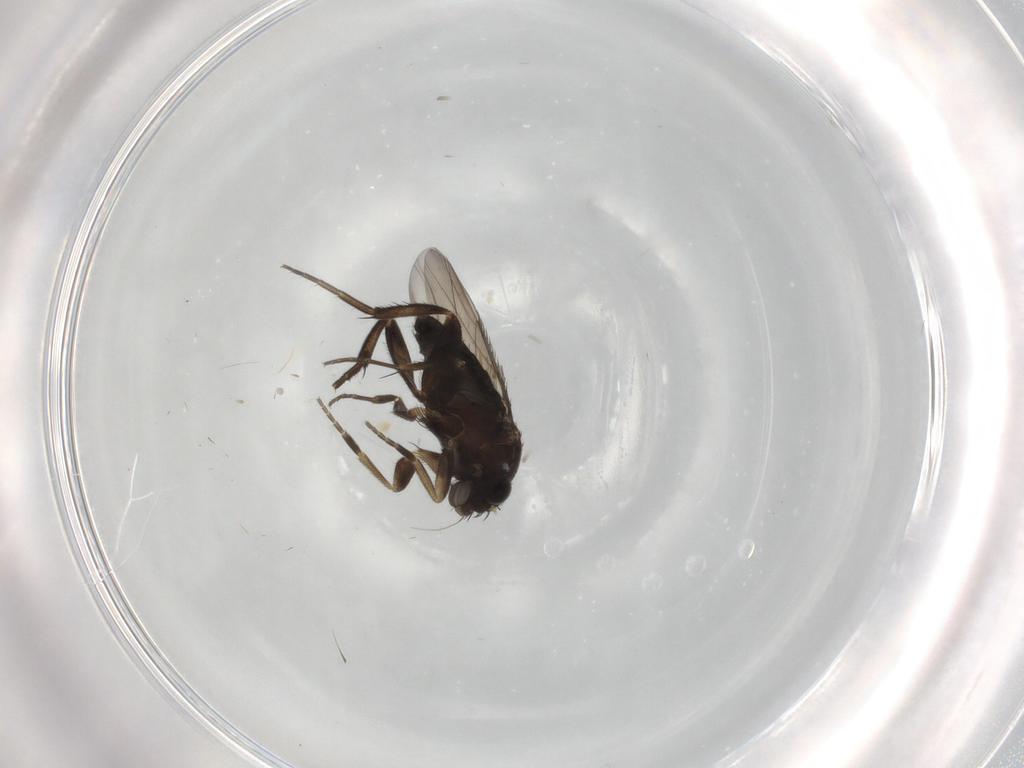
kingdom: Animalia
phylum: Arthropoda
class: Insecta
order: Diptera
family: Phoridae
